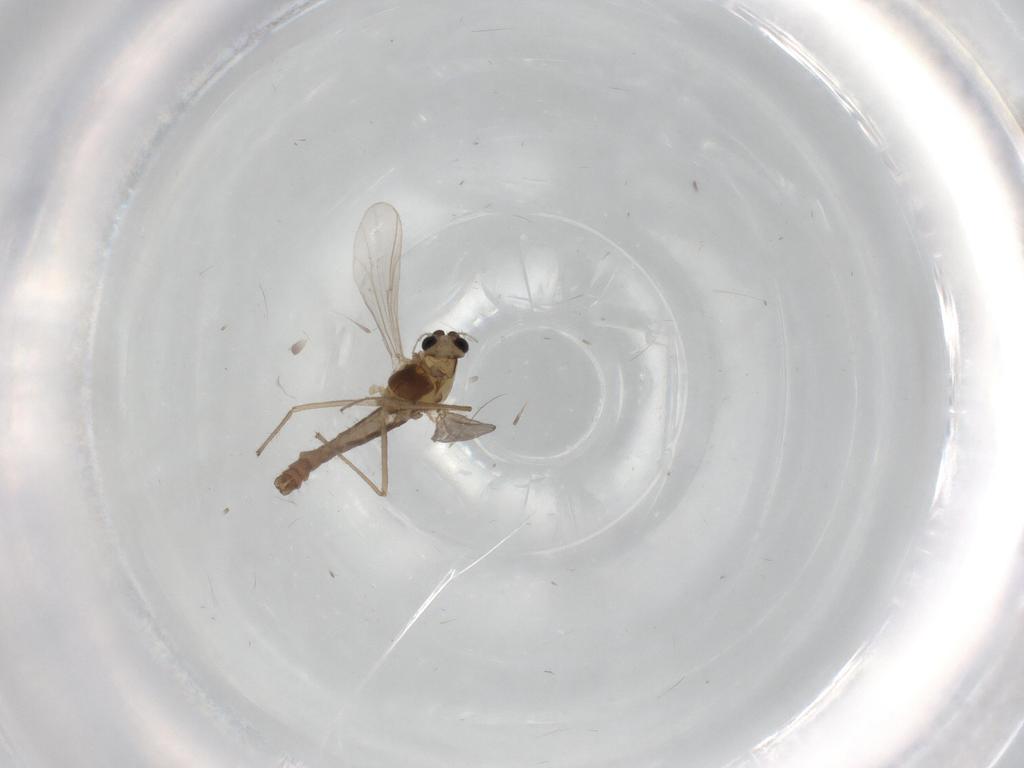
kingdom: Animalia
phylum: Arthropoda
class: Insecta
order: Diptera
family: Chironomidae
